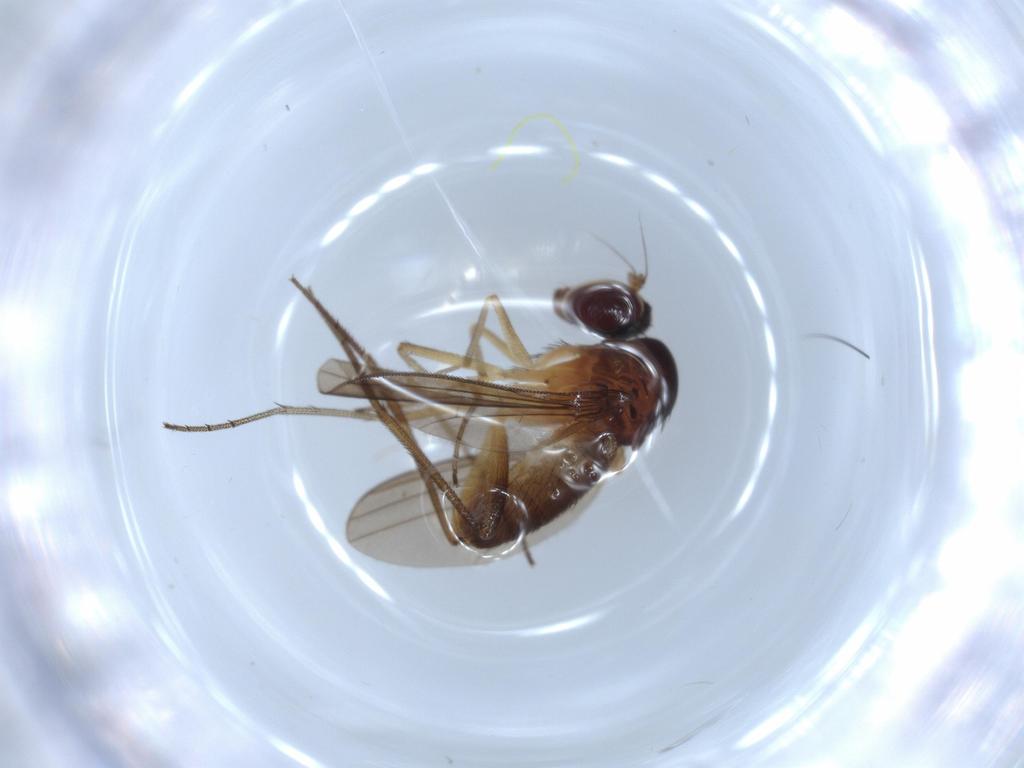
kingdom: Animalia
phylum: Arthropoda
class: Insecta
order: Diptera
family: Dolichopodidae
